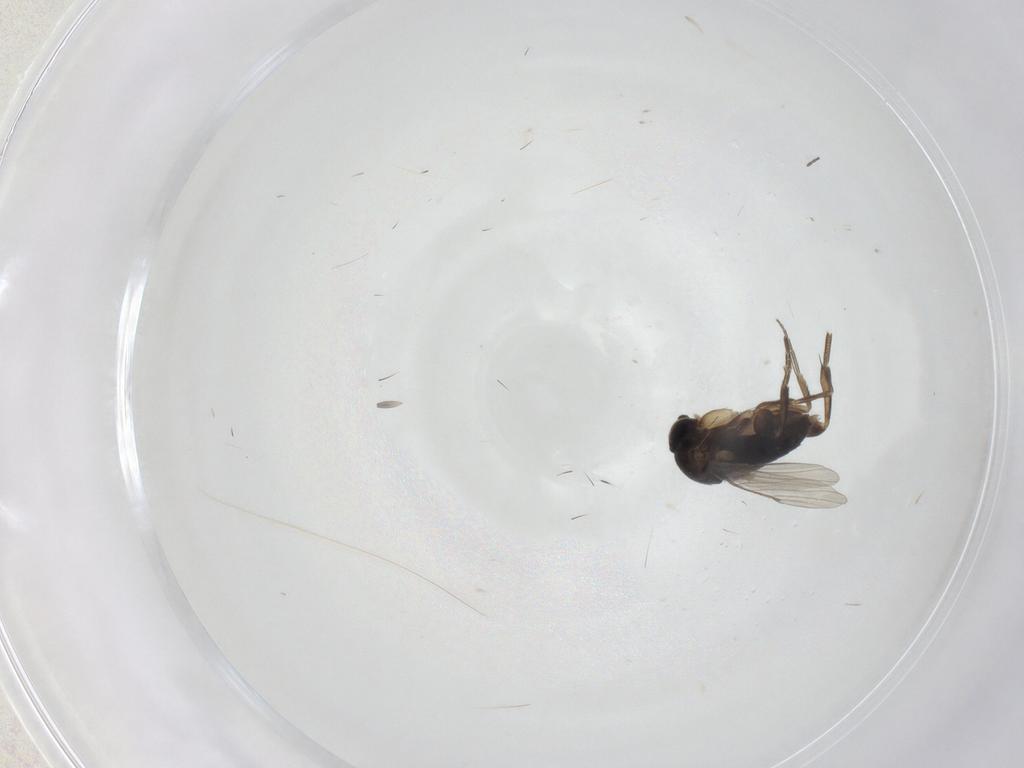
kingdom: Animalia
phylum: Arthropoda
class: Insecta
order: Diptera
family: Phoridae
